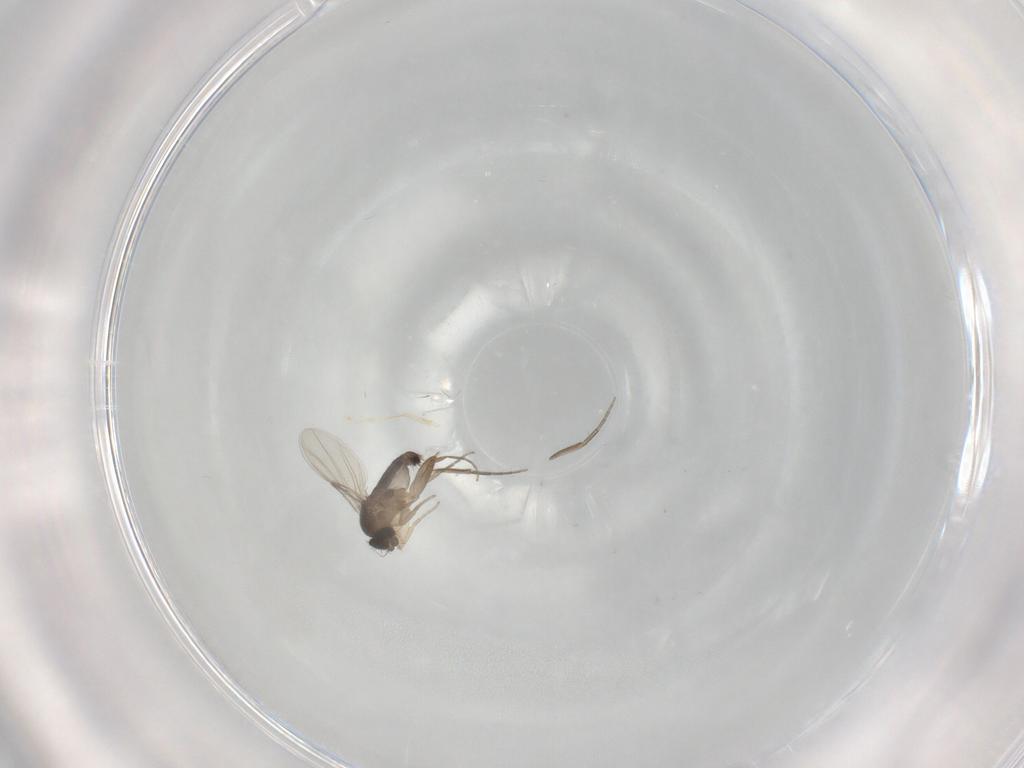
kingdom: Animalia
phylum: Arthropoda
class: Insecta
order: Diptera
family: Phoridae
